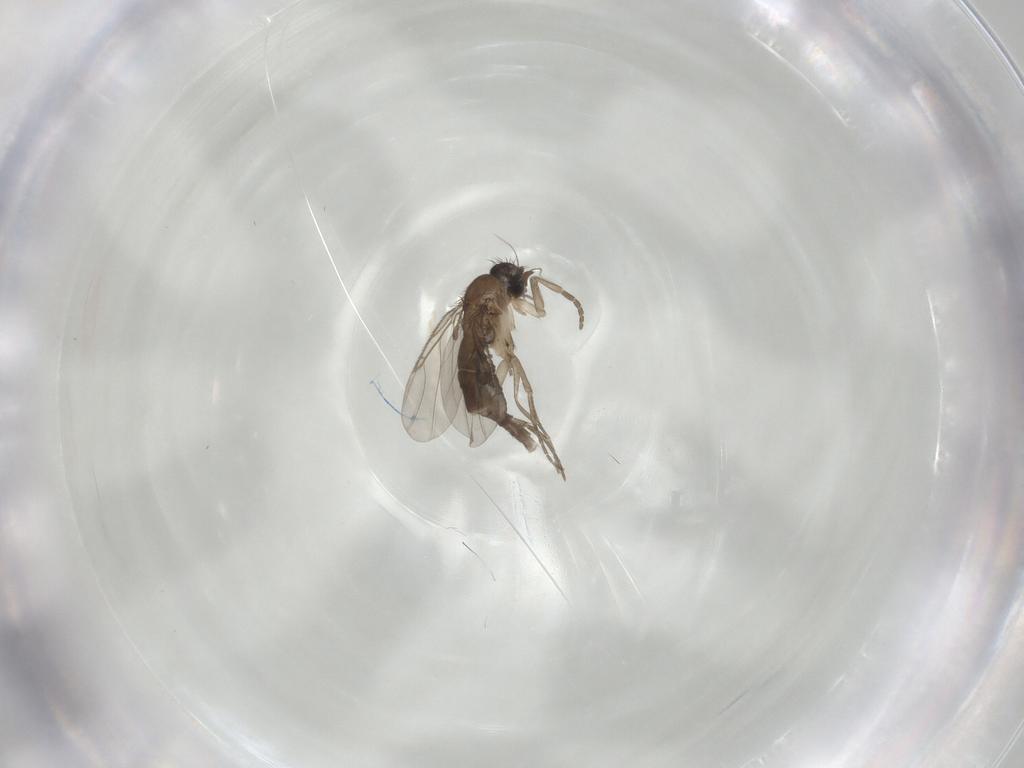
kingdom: Animalia
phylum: Arthropoda
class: Insecta
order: Diptera
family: Phoridae
